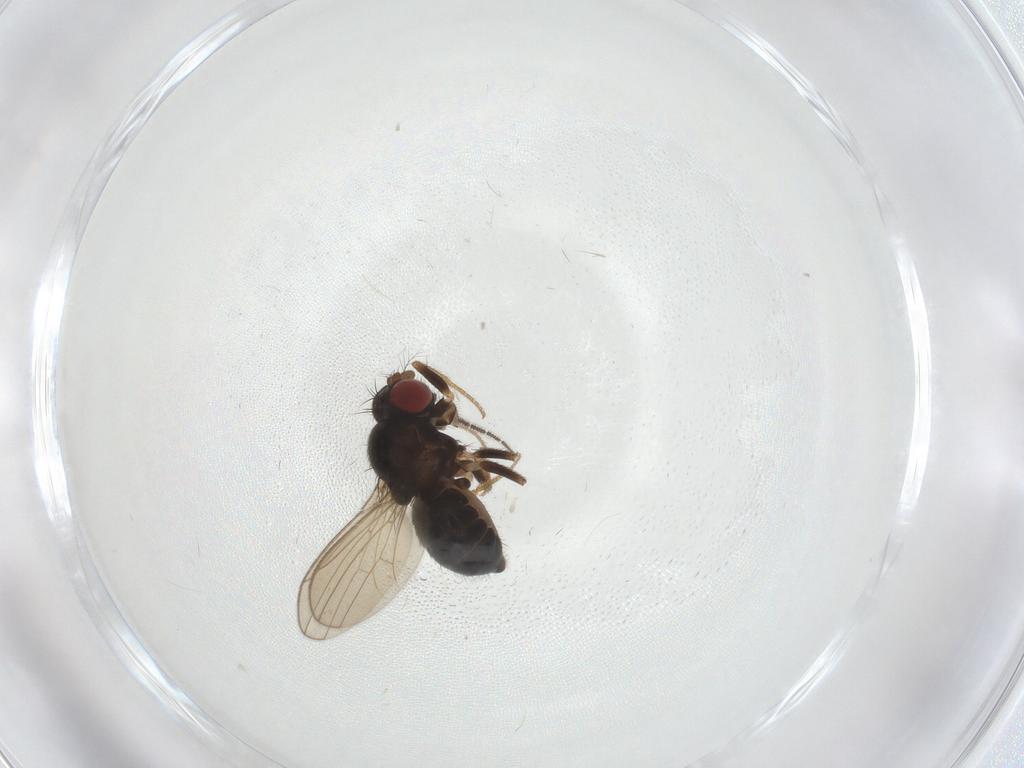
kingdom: Animalia
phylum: Arthropoda
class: Insecta
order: Diptera
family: Drosophilidae
